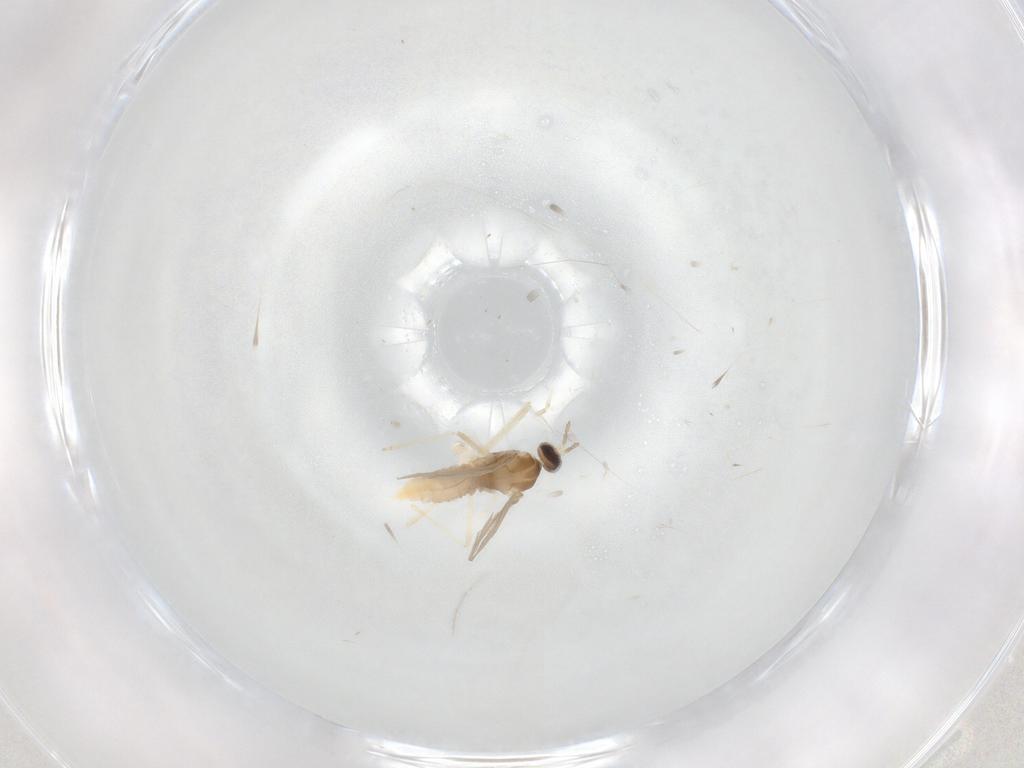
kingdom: Animalia
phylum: Arthropoda
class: Insecta
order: Diptera
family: Cecidomyiidae
